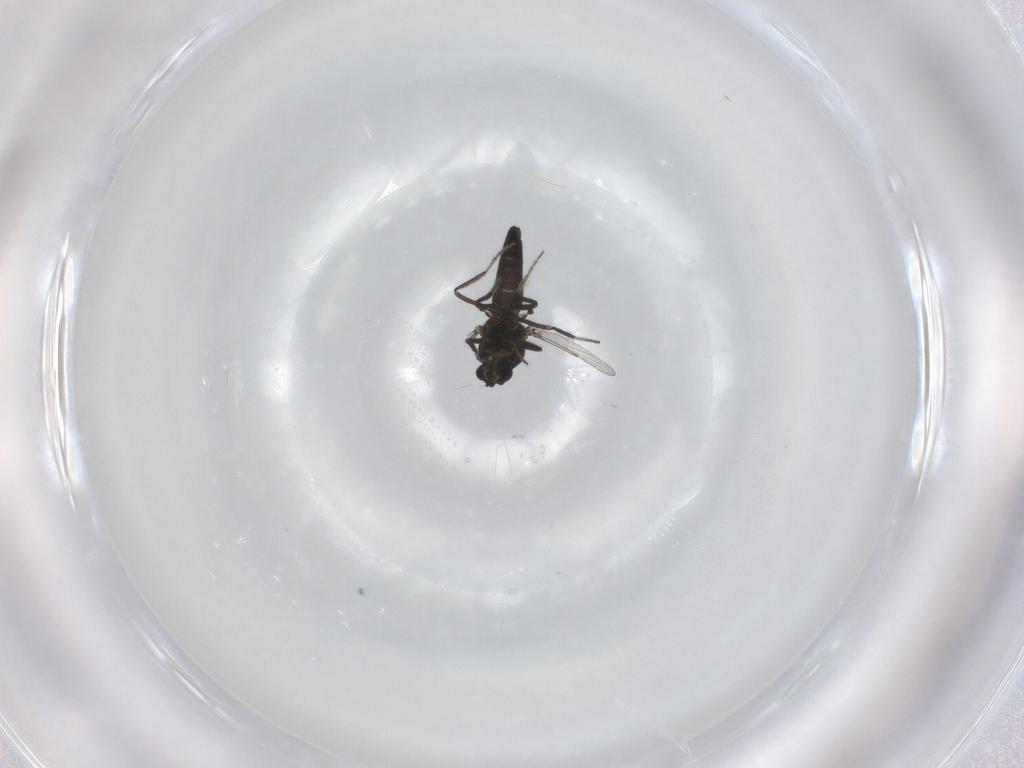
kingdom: Animalia
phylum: Arthropoda
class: Insecta
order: Diptera
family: Ceratopogonidae
